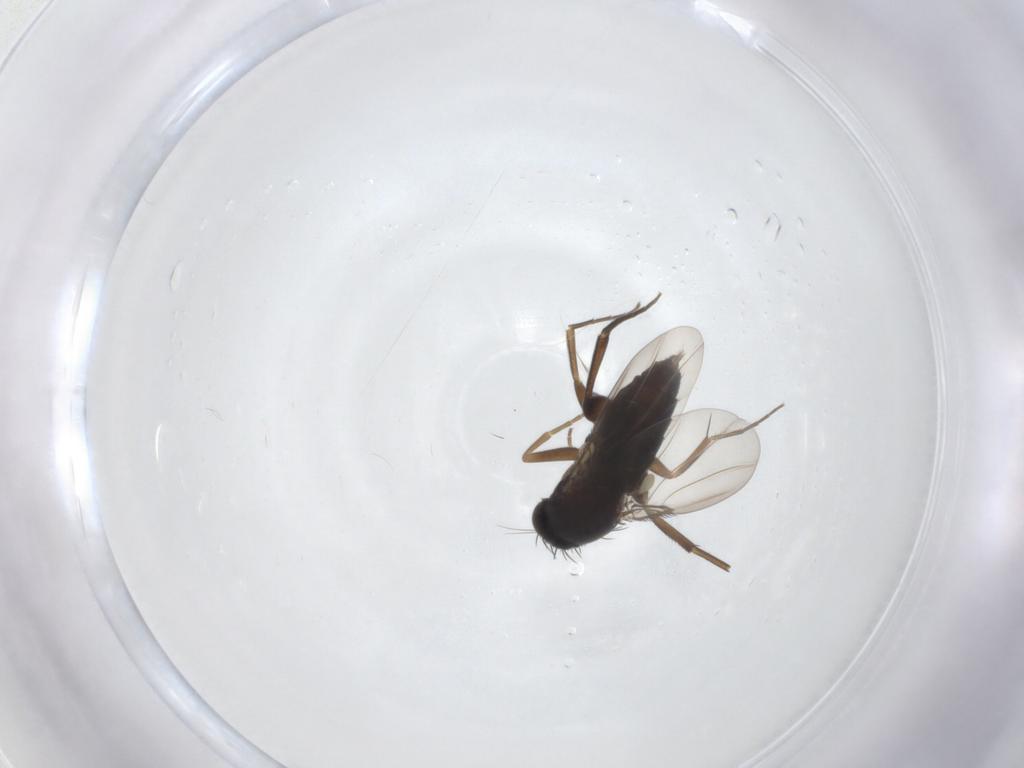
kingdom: Animalia
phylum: Arthropoda
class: Insecta
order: Diptera
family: Phoridae
